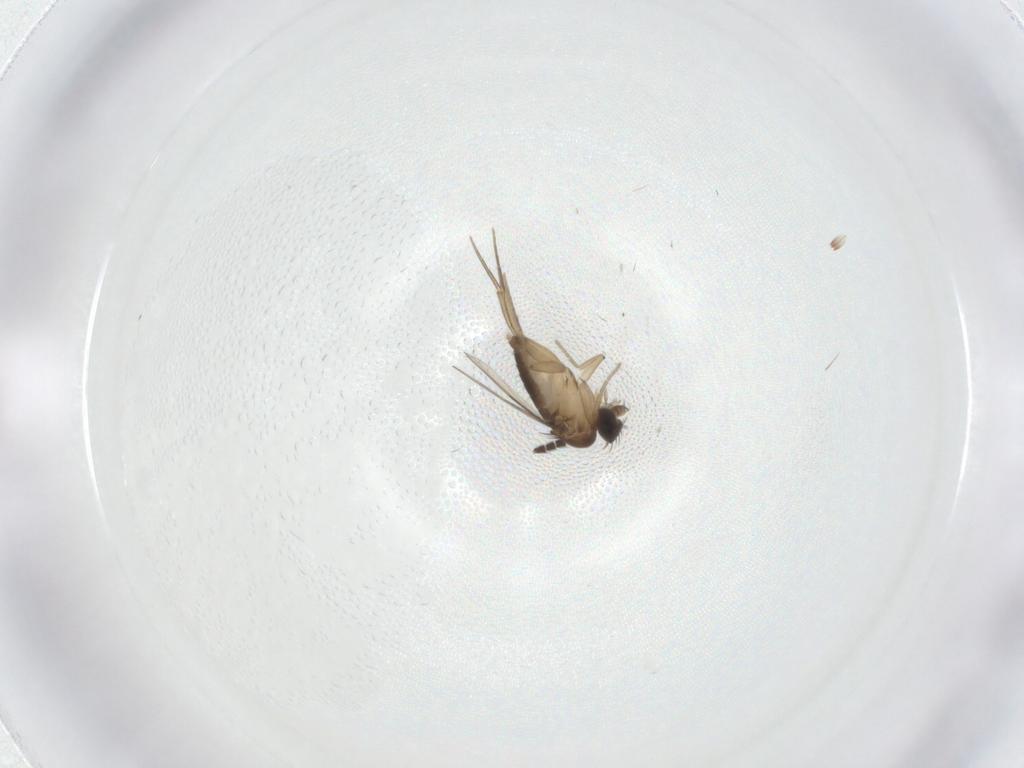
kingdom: Animalia
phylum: Arthropoda
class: Insecta
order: Diptera
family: Phoridae
